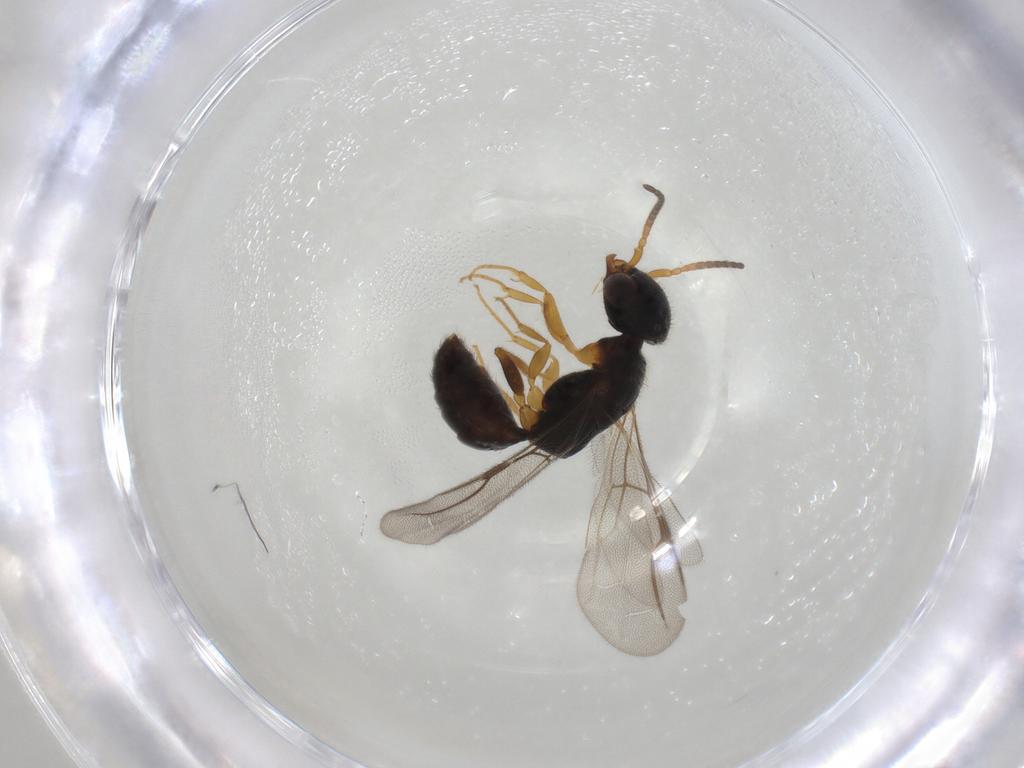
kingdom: Animalia
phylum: Arthropoda
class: Insecta
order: Hymenoptera
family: Bethylidae
